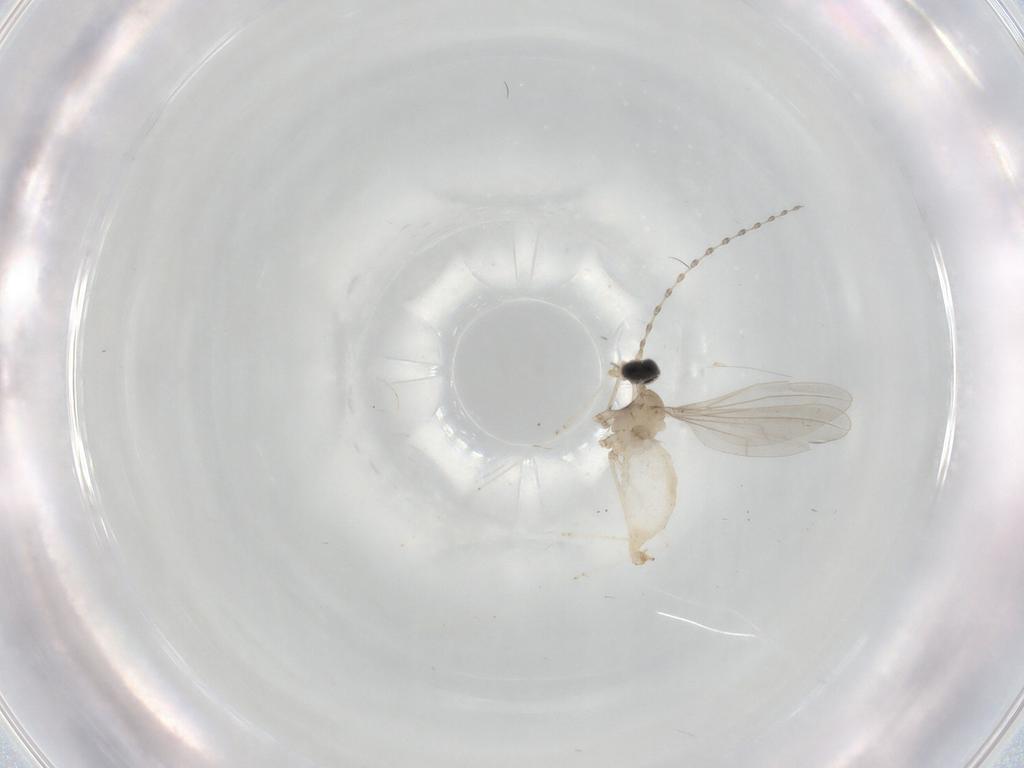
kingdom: Animalia
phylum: Arthropoda
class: Insecta
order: Diptera
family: Cecidomyiidae
